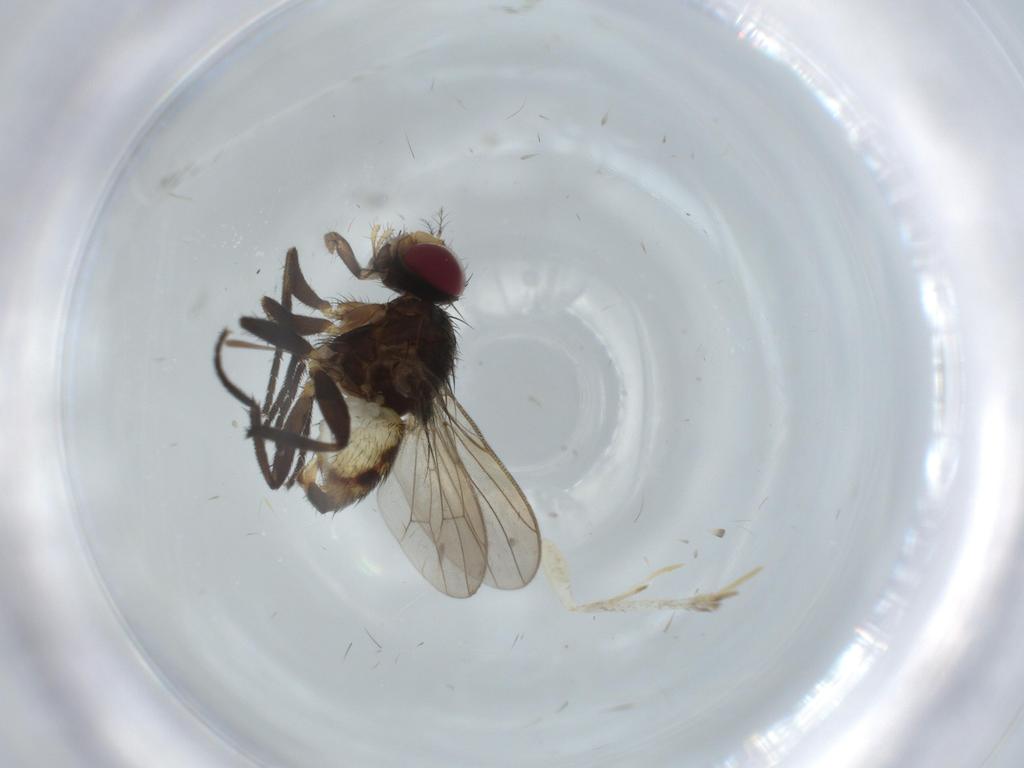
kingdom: Animalia
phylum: Arthropoda
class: Insecta
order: Diptera
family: Anthomyiidae
